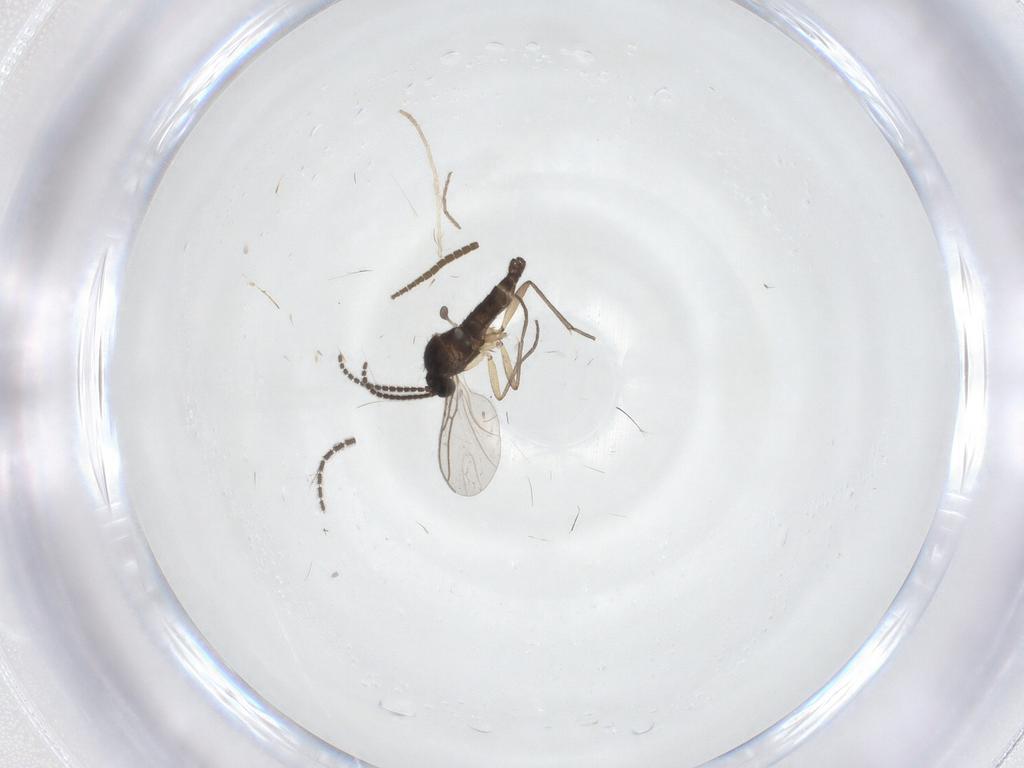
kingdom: Animalia
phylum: Arthropoda
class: Insecta
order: Diptera
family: Sciaridae
